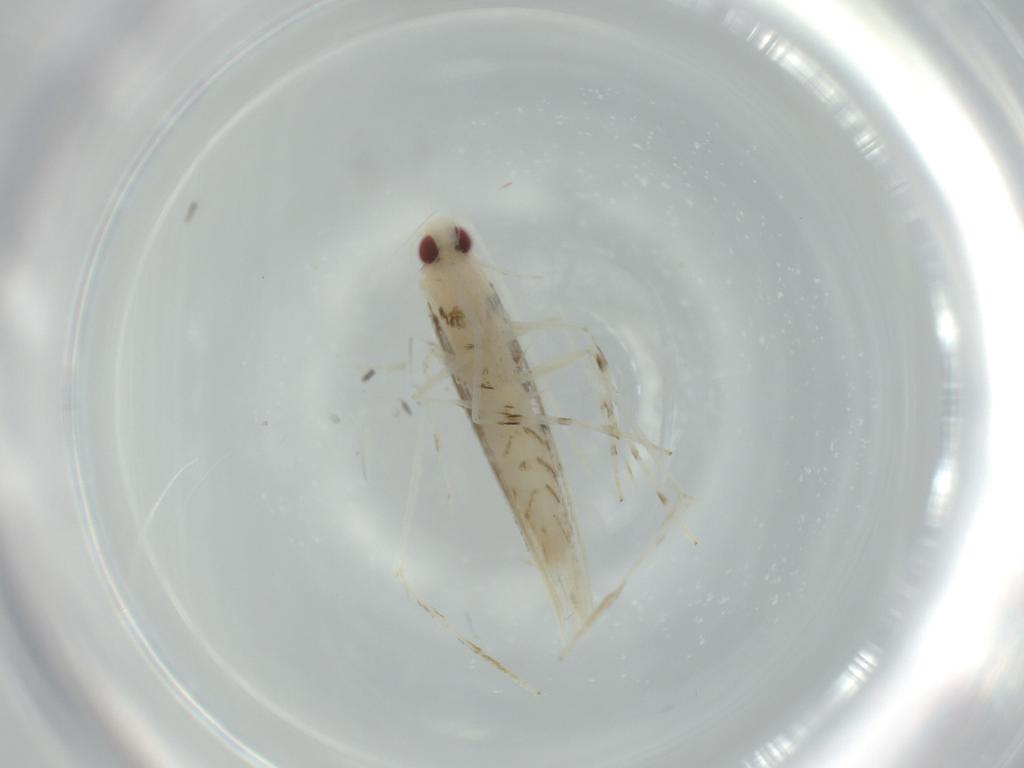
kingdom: Animalia
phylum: Arthropoda
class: Insecta
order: Lepidoptera
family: Gracillariidae
